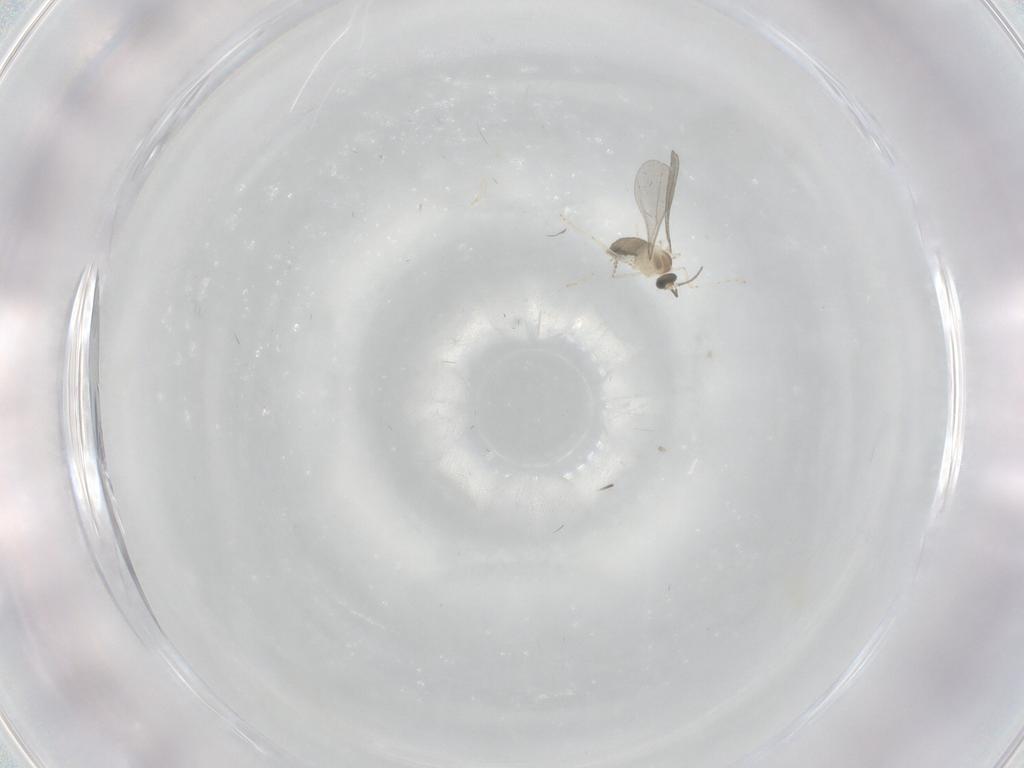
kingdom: Animalia
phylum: Arthropoda
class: Insecta
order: Diptera
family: Cecidomyiidae
